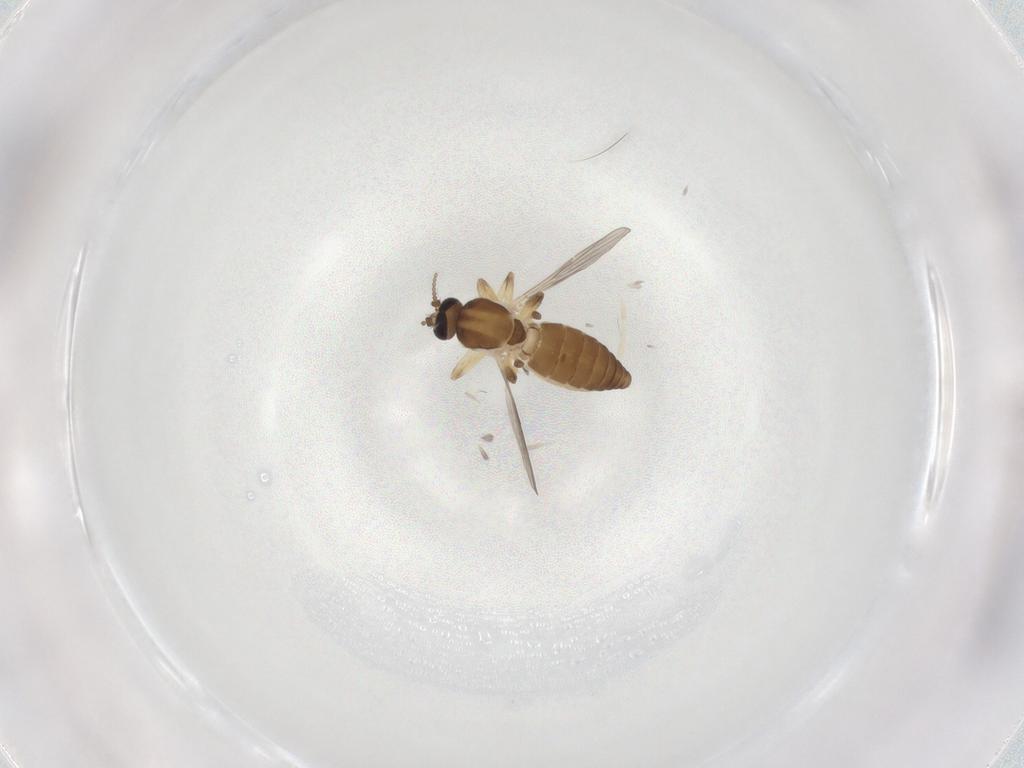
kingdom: Animalia
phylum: Arthropoda
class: Insecta
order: Diptera
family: Ceratopogonidae
